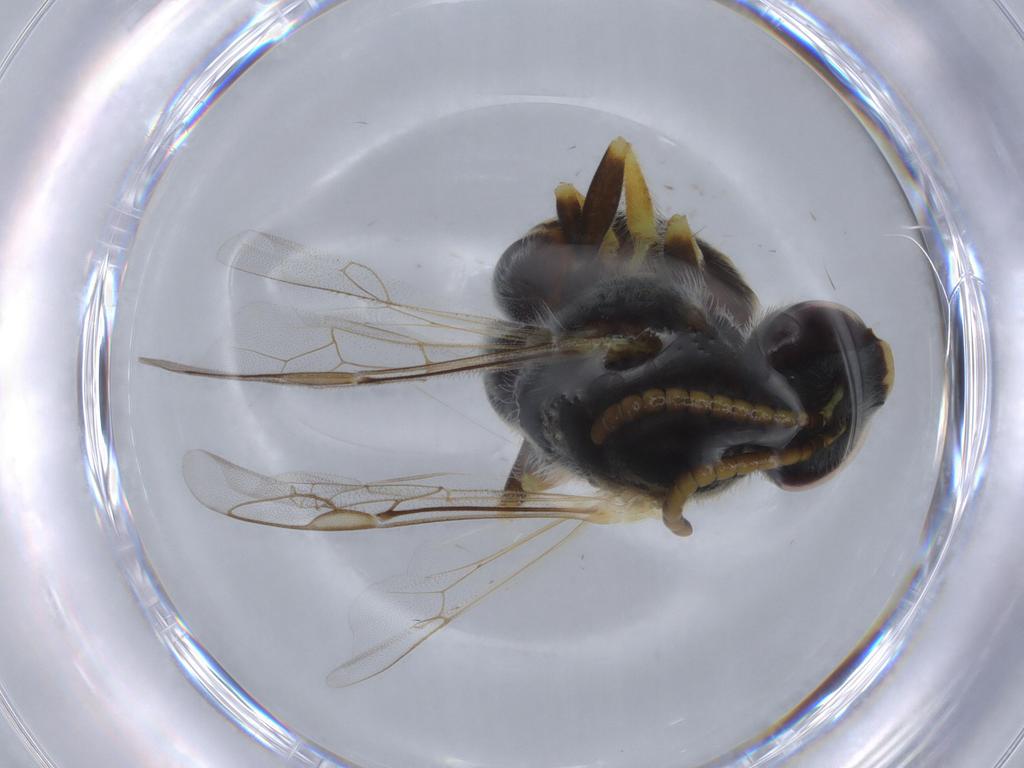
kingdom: Animalia
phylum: Arthropoda
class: Insecta
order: Hymenoptera
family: Halictidae
